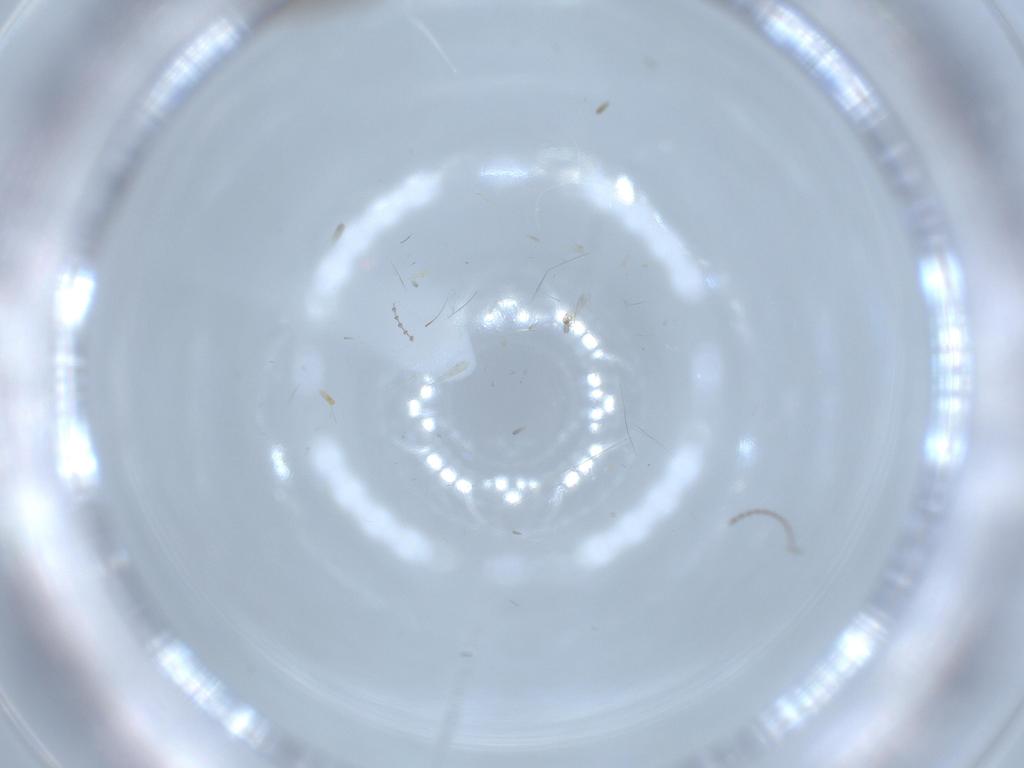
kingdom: Animalia
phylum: Arthropoda
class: Insecta
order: Diptera
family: Cecidomyiidae
